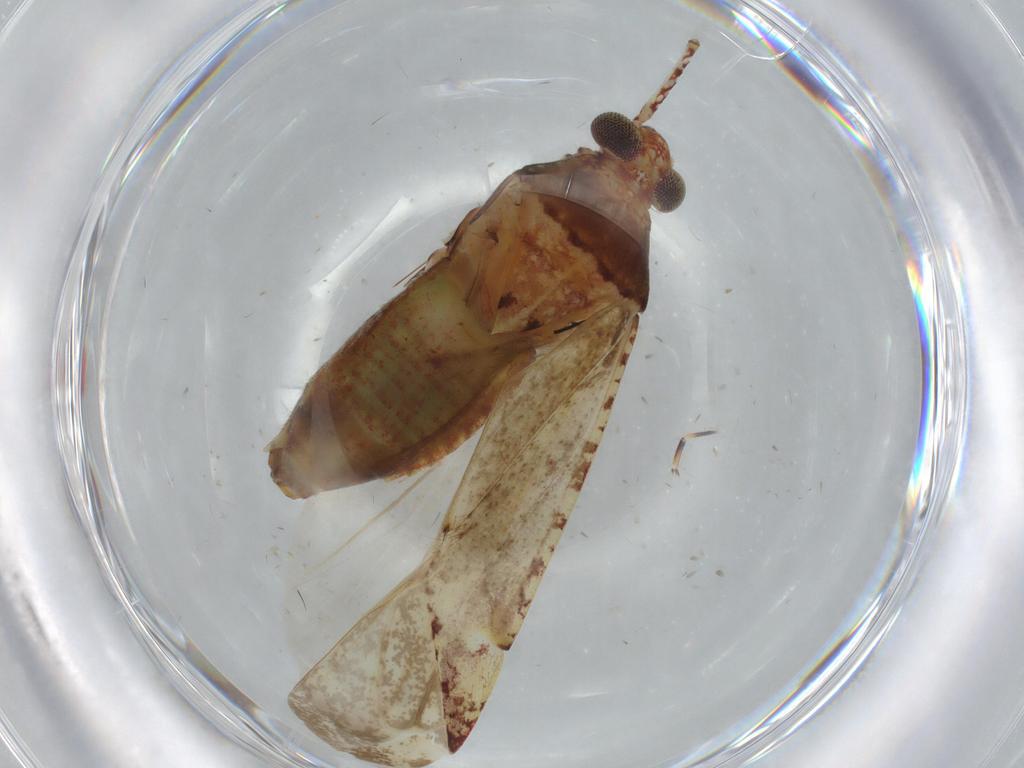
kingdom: Animalia
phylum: Arthropoda
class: Insecta
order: Hemiptera
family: Miridae
